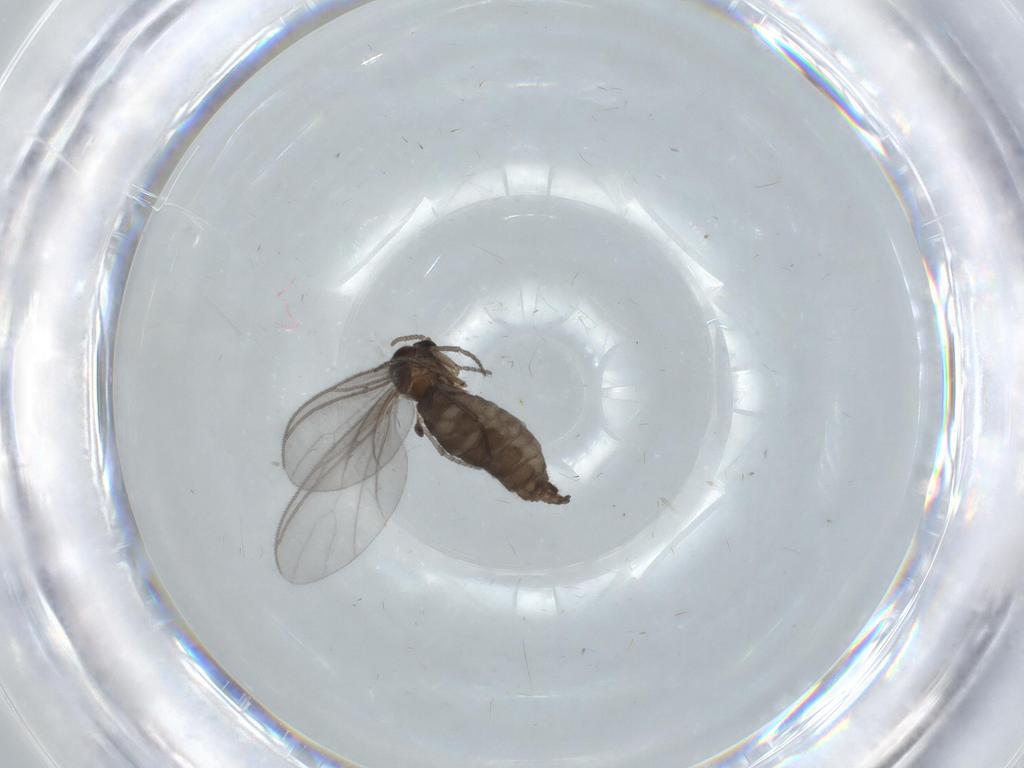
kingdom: Animalia
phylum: Arthropoda
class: Insecta
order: Diptera
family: Sciaridae
